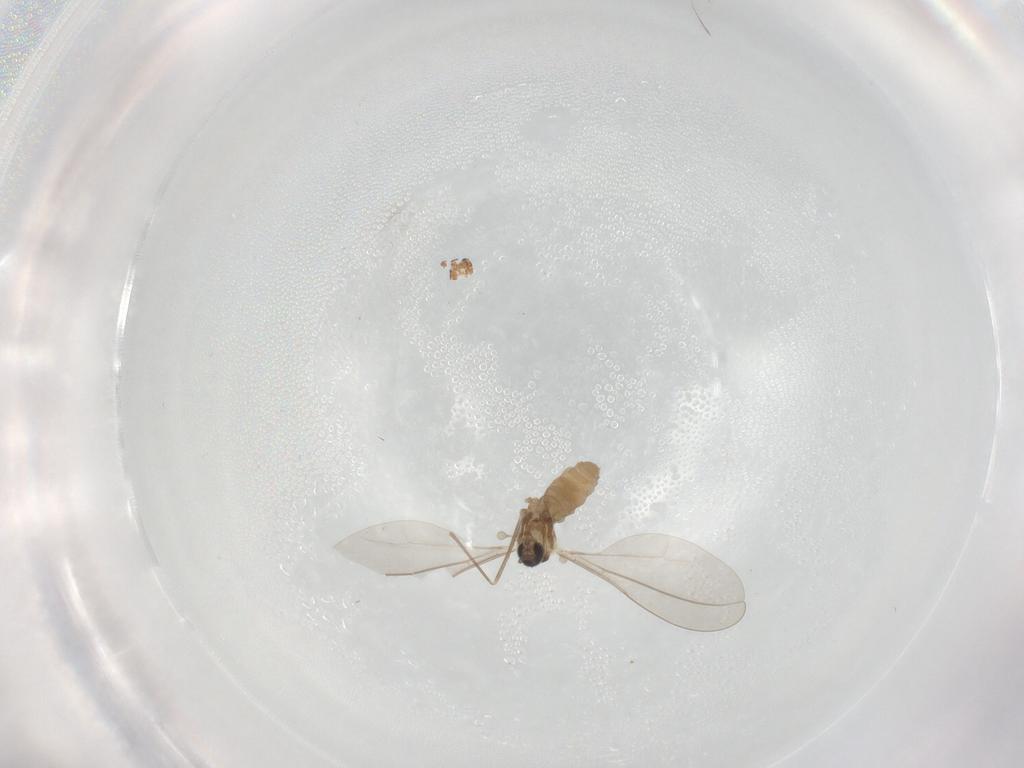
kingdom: Animalia
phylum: Arthropoda
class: Insecta
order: Diptera
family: Cecidomyiidae
